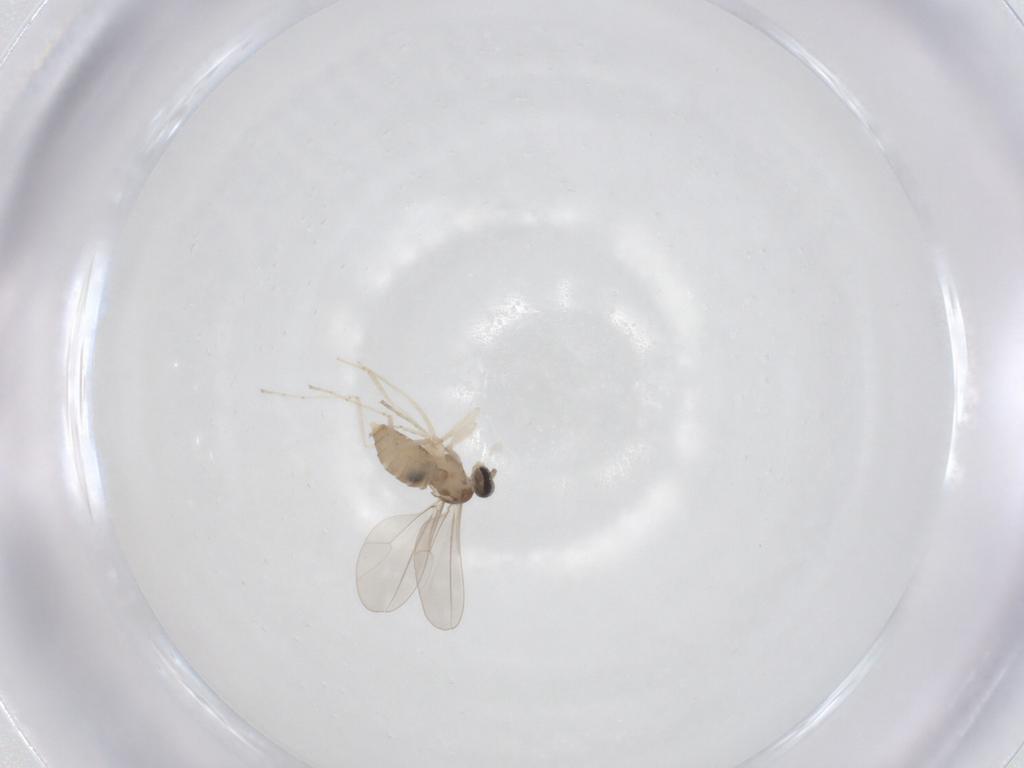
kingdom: Animalia
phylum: Arthropoda
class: Insecta
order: Diptera
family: Cecidomyiidae
